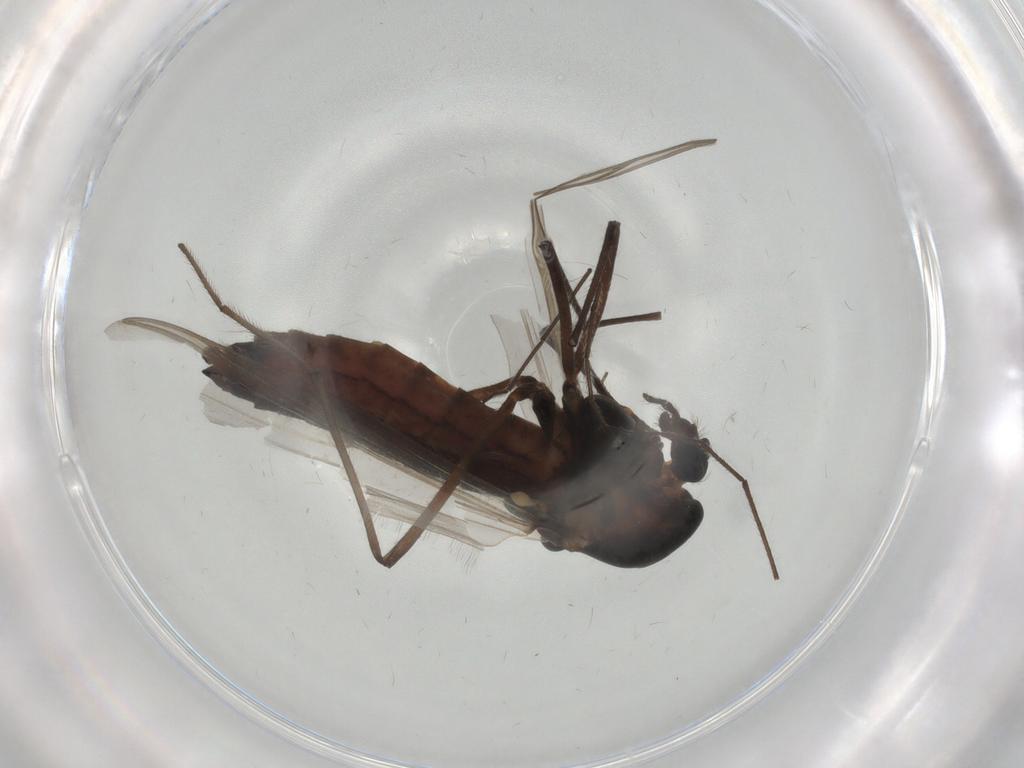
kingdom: Animalia
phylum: Arthropoda
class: Insecta
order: Diptera
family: Chironomidae
